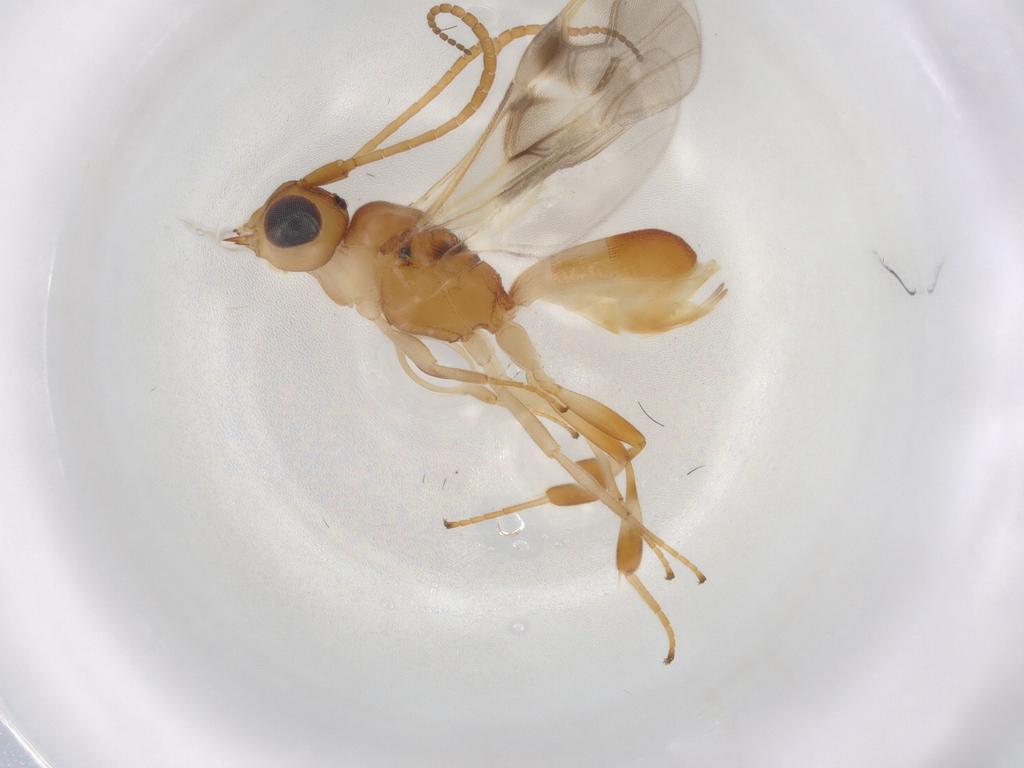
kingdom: Animalia
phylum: Arthropoda
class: Insecta
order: Hymenoptera
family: Braconidae
